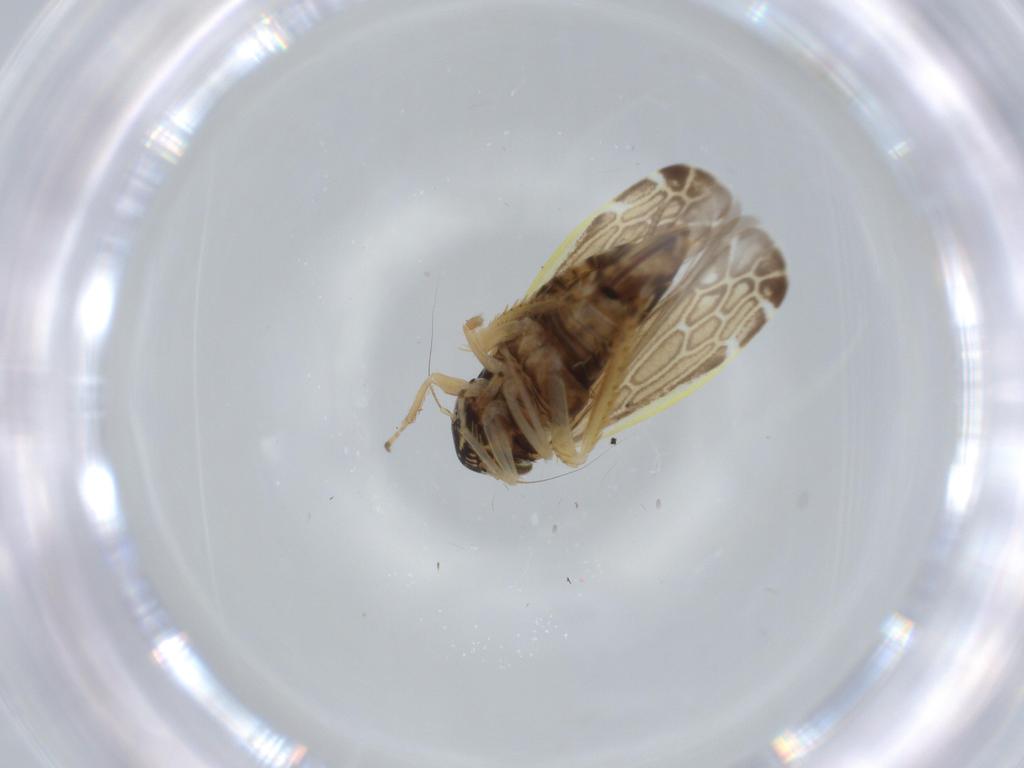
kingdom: Animalia
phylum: Arthropoda
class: Insecta
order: Hemiptera
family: Cicadellidae
